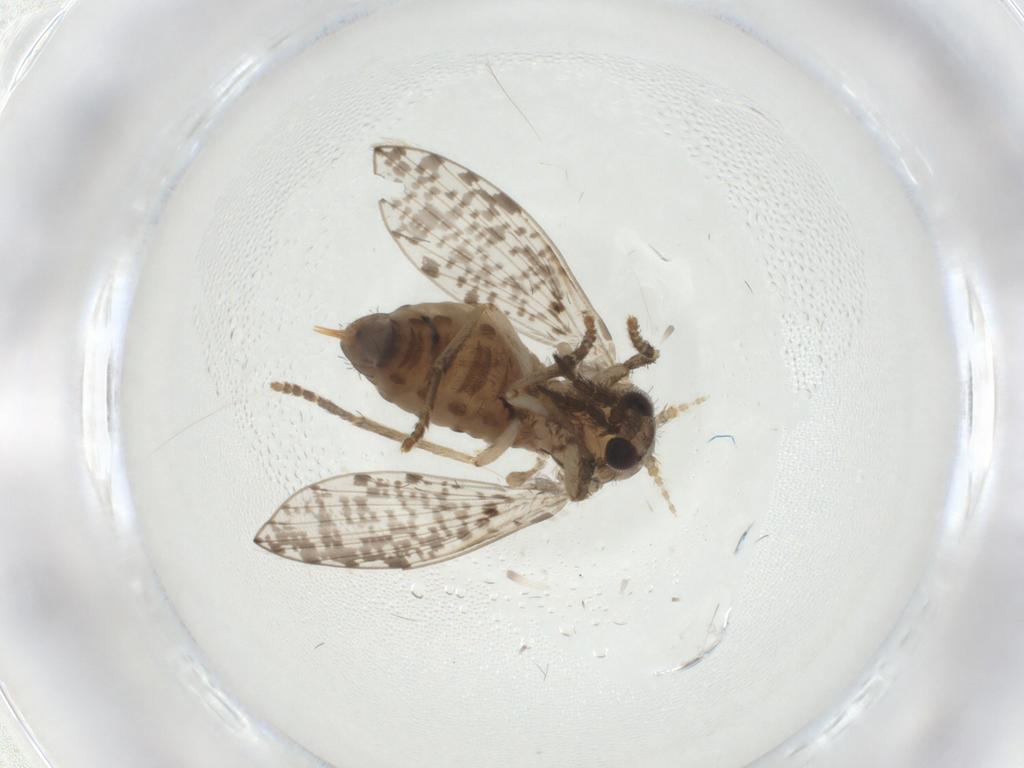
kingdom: Animalia
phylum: Arthropoda
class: Insecta
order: Diptera
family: Psychodidae
